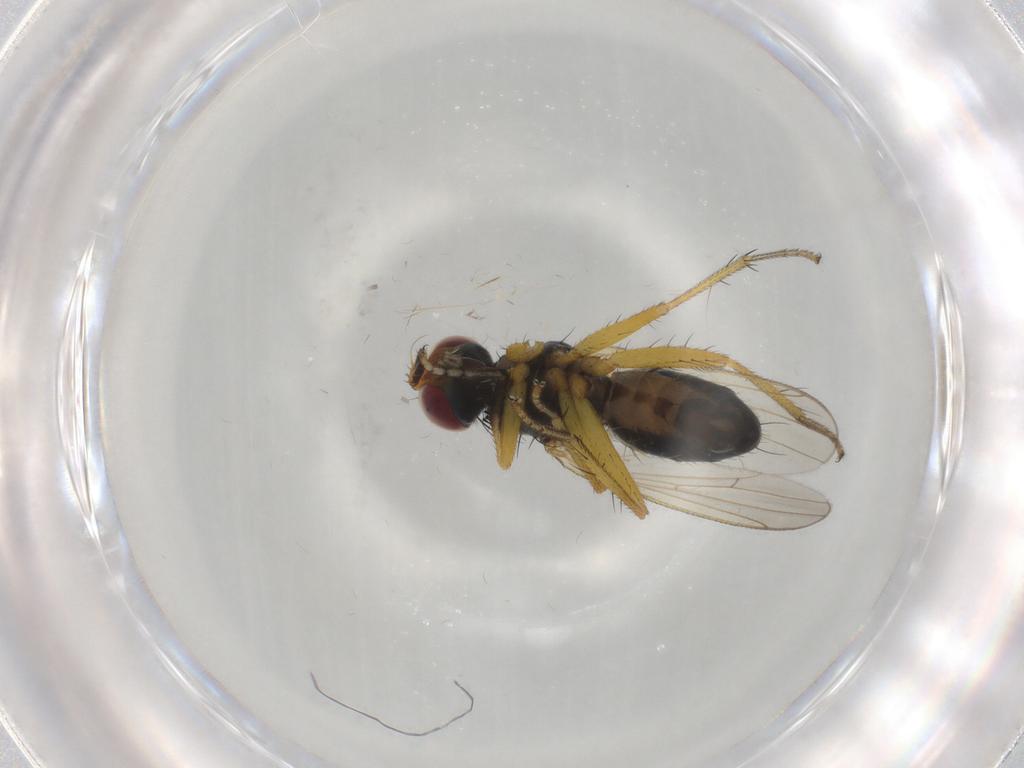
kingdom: Animalia
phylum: Arthropoda
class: Insecta
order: Diptera
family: Muscidae
